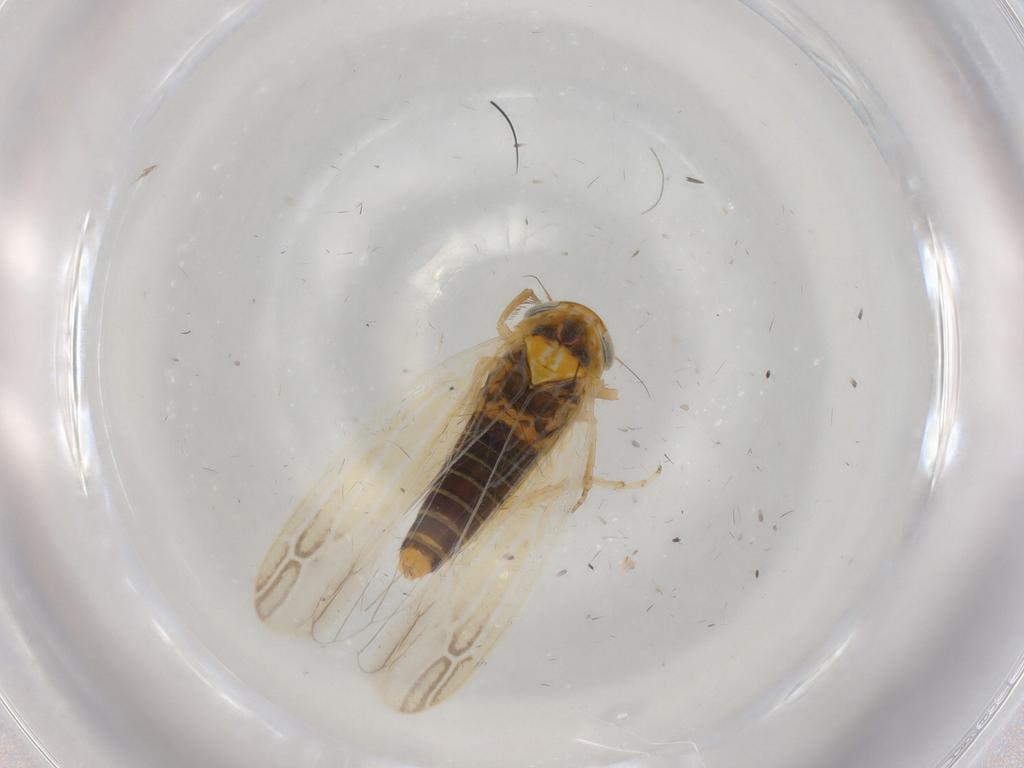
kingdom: Animalia
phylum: Arthropoda
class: Insecta
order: Hemiptera
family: Cicadellidae
